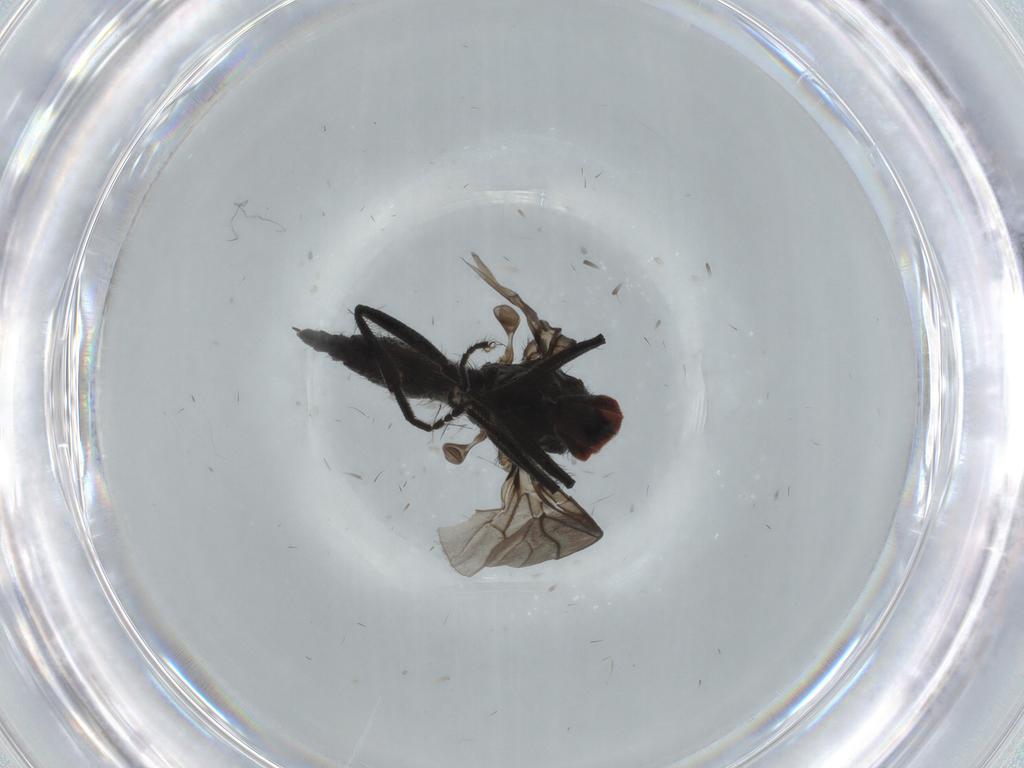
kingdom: Animalia
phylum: Arthropoda
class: Insecta
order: Diptera
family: Hybotidae
